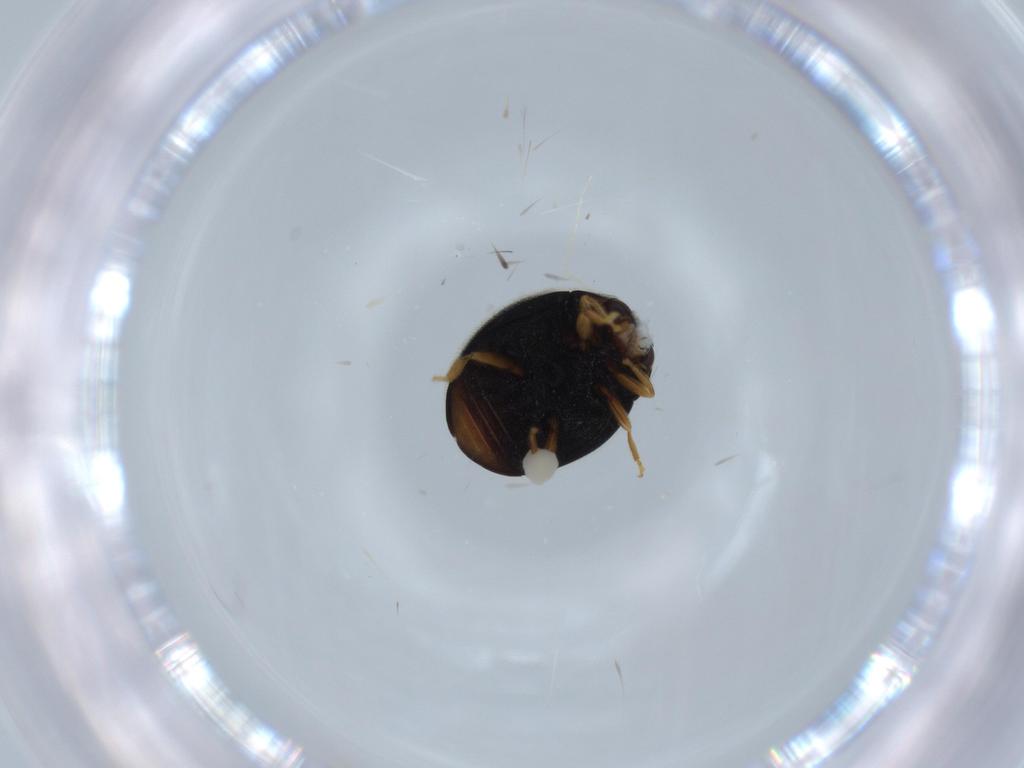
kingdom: Animalia
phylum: Arthropoda
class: Insecta
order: Coleoptera
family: Coccinellidae
